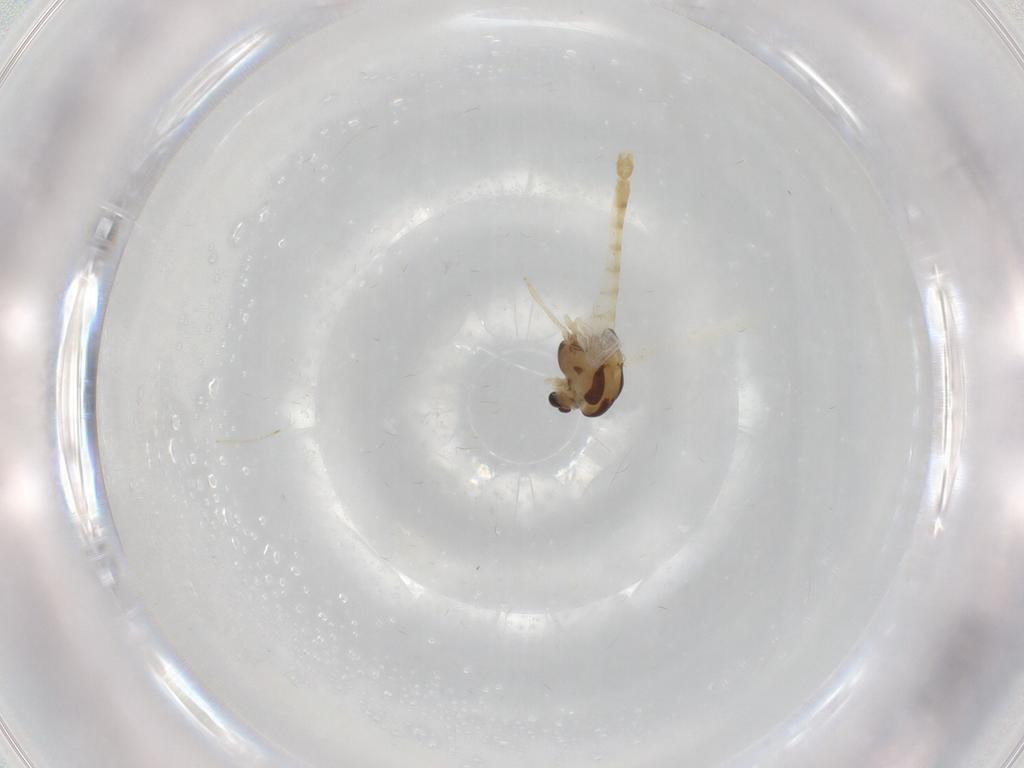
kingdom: Animalia
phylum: Arthropoda
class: Insecta
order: Diptera
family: Chironomidae
